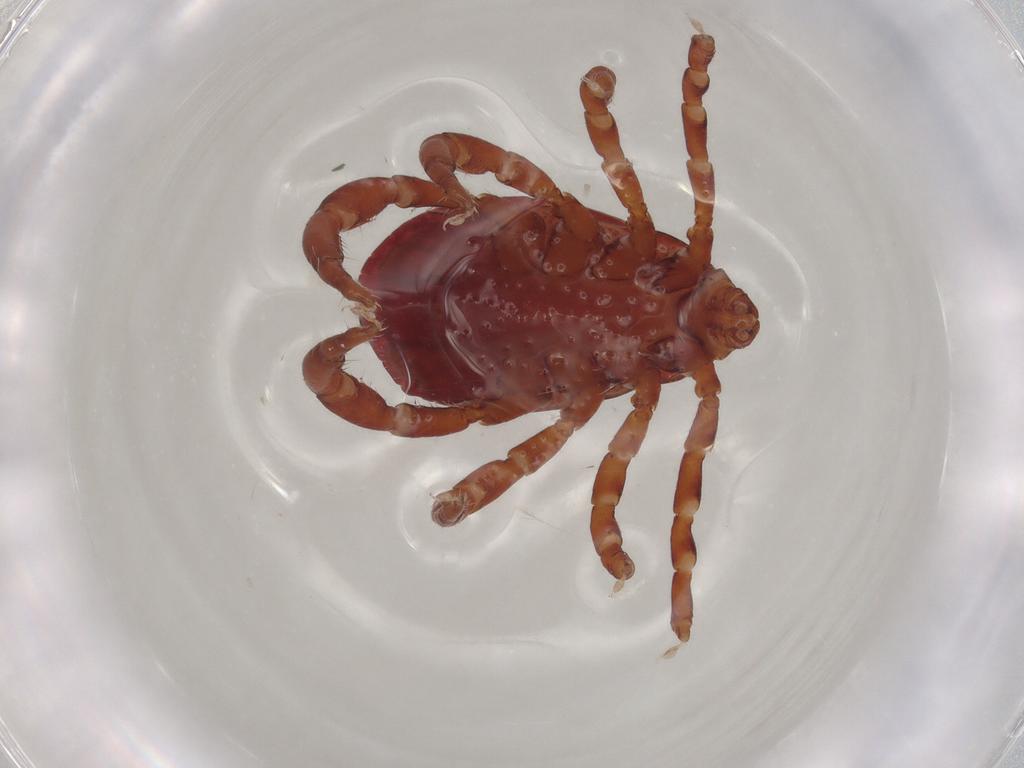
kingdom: Animalia
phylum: Arthropoda
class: Arachnida
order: Ixodida
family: Ixodidae
